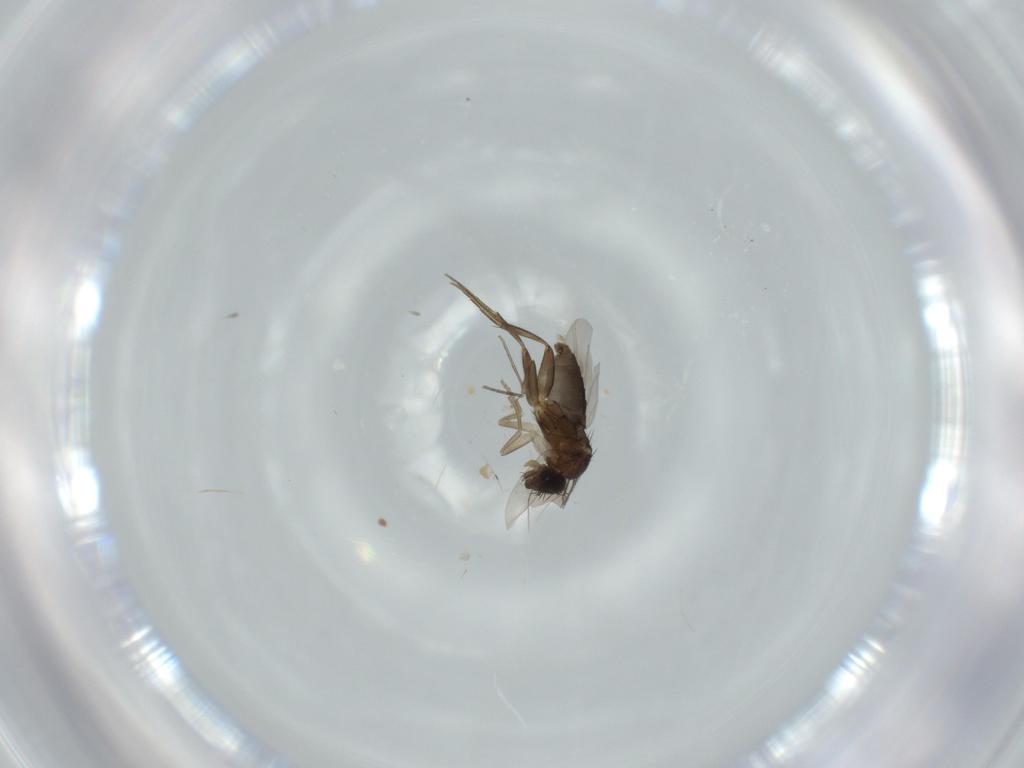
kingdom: Animalia
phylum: Arthropoda
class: Insecta
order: Diptera
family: Phoridae
